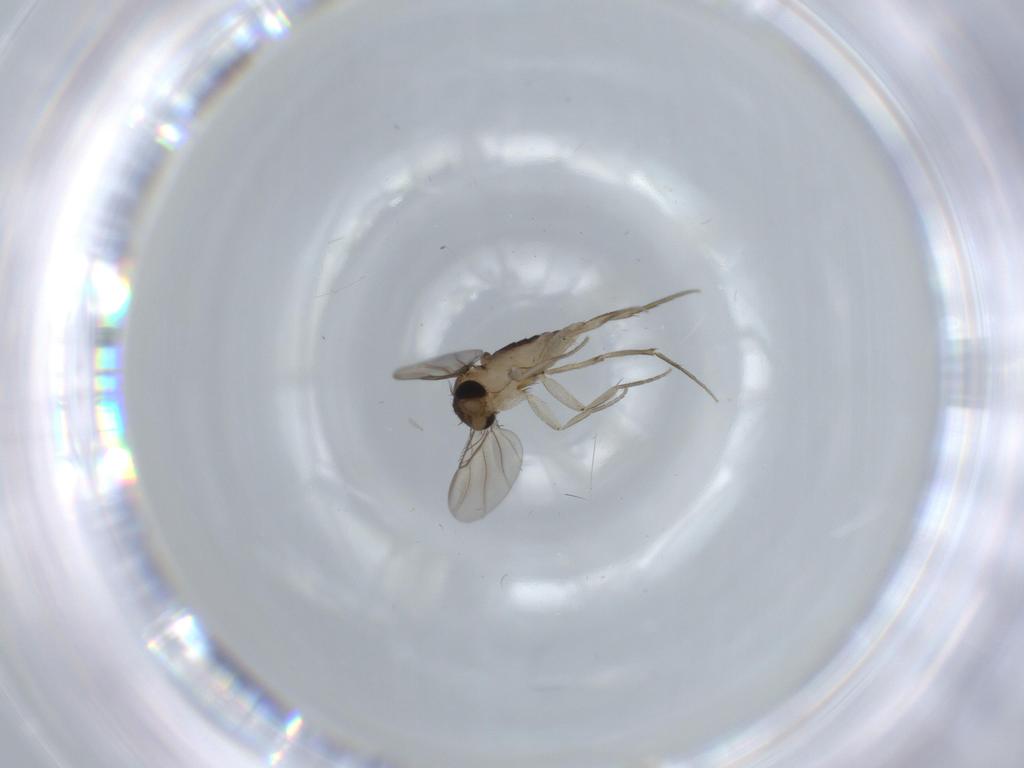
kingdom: Animalia
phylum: Arthropoda
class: Insecta
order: Diptera
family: Phoridae
